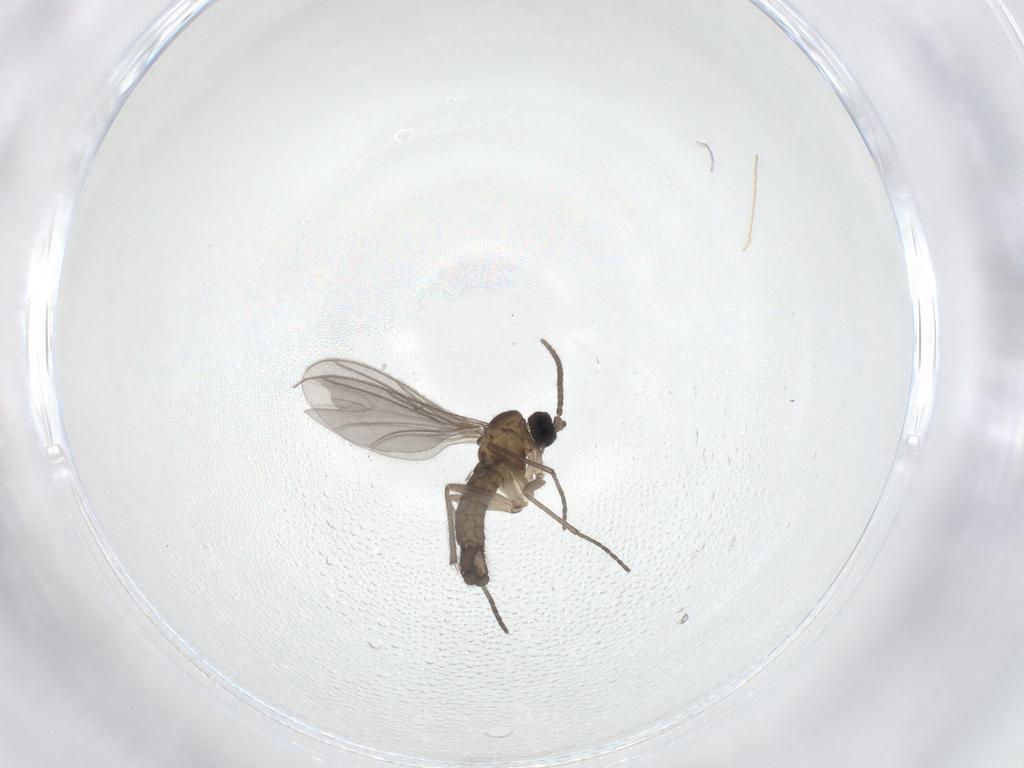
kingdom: Animalia
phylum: Arthropoda
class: Insecta
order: Diptera
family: Sciaridae
